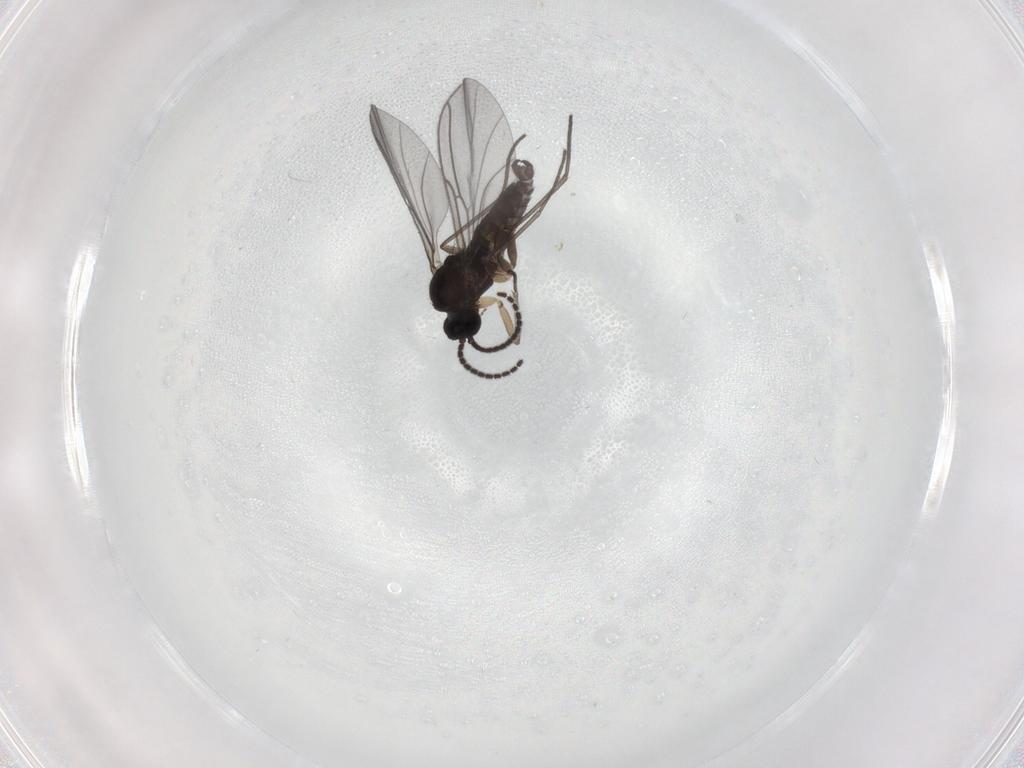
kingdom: Animalia
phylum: Arthropoda
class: Insecta
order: Diptera
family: Sciaridae
